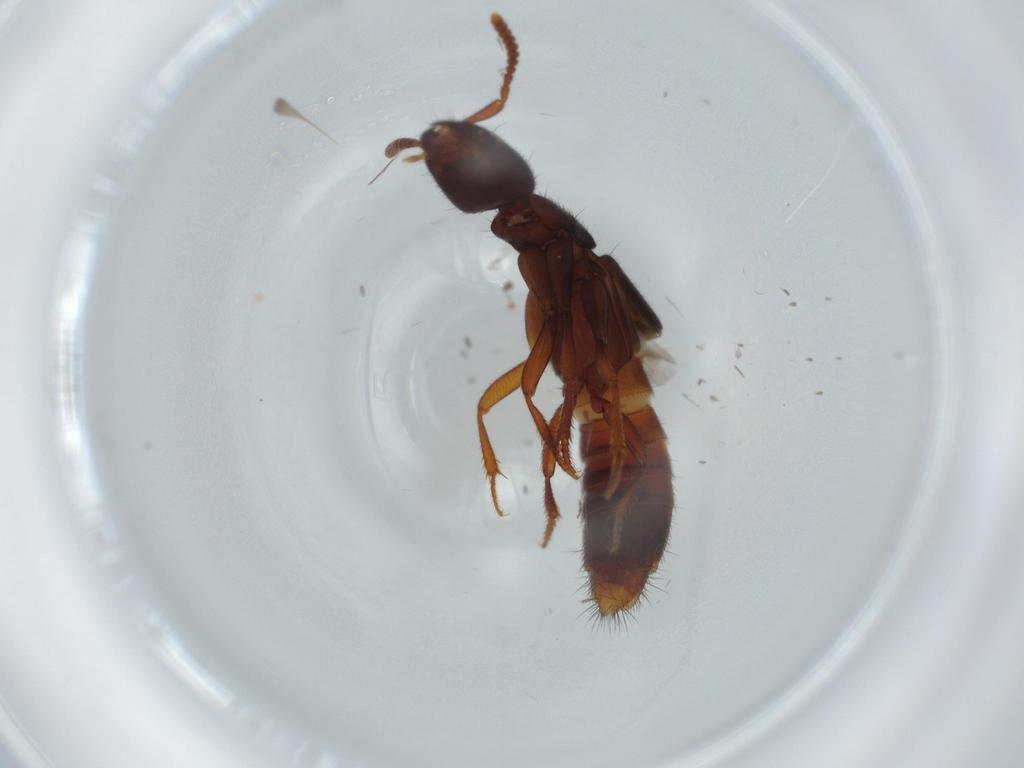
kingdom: Animalia
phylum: Arthropoda
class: Insecta
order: Coleoptera
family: Staphylinidae
